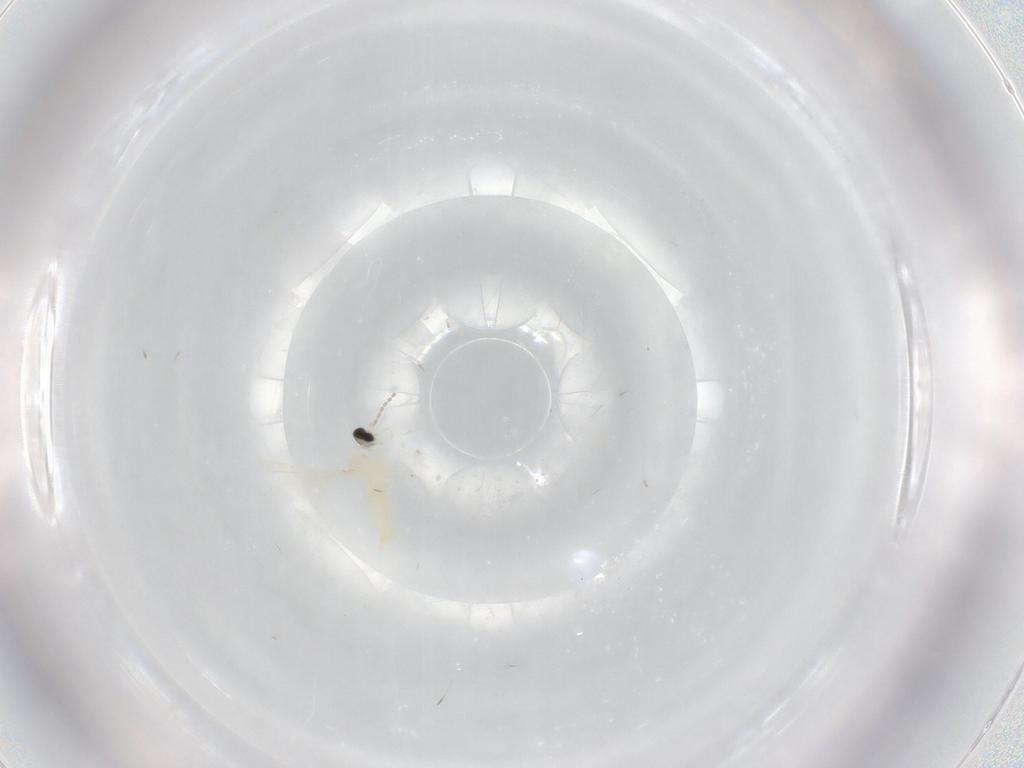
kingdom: Animalia
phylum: Arthropoda
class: Insecta
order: Diptera
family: Cecidomyiidae
